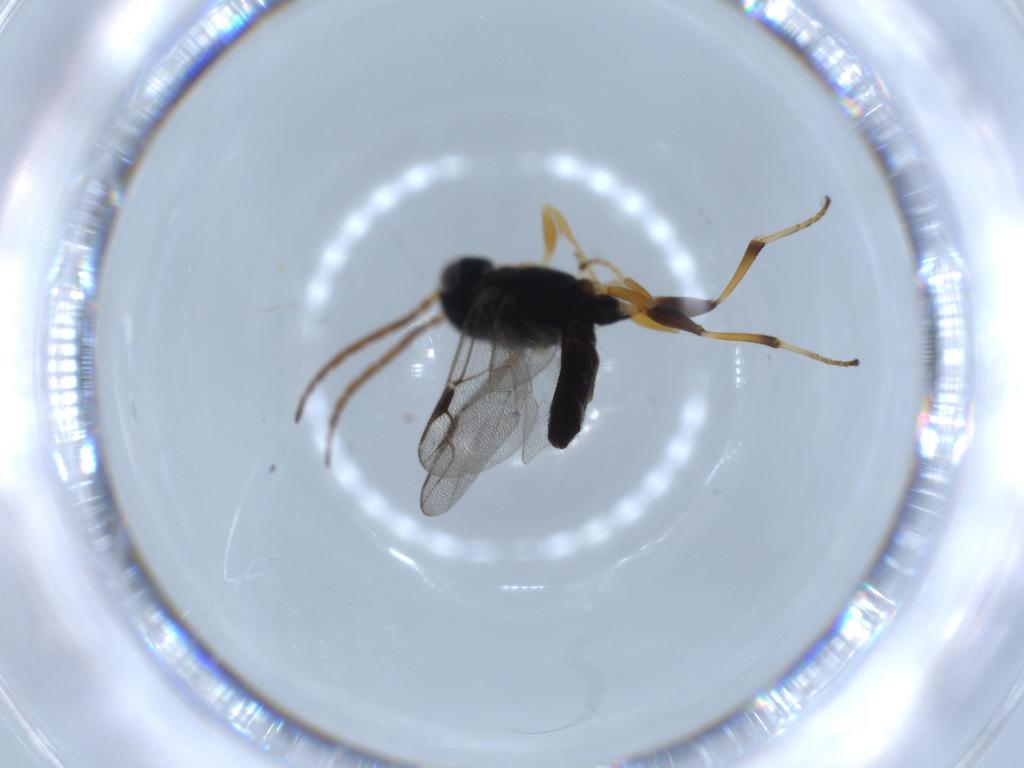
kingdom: Animalia
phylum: Arthropoda
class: Insecta
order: Hymenoptera
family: Dryinidae
